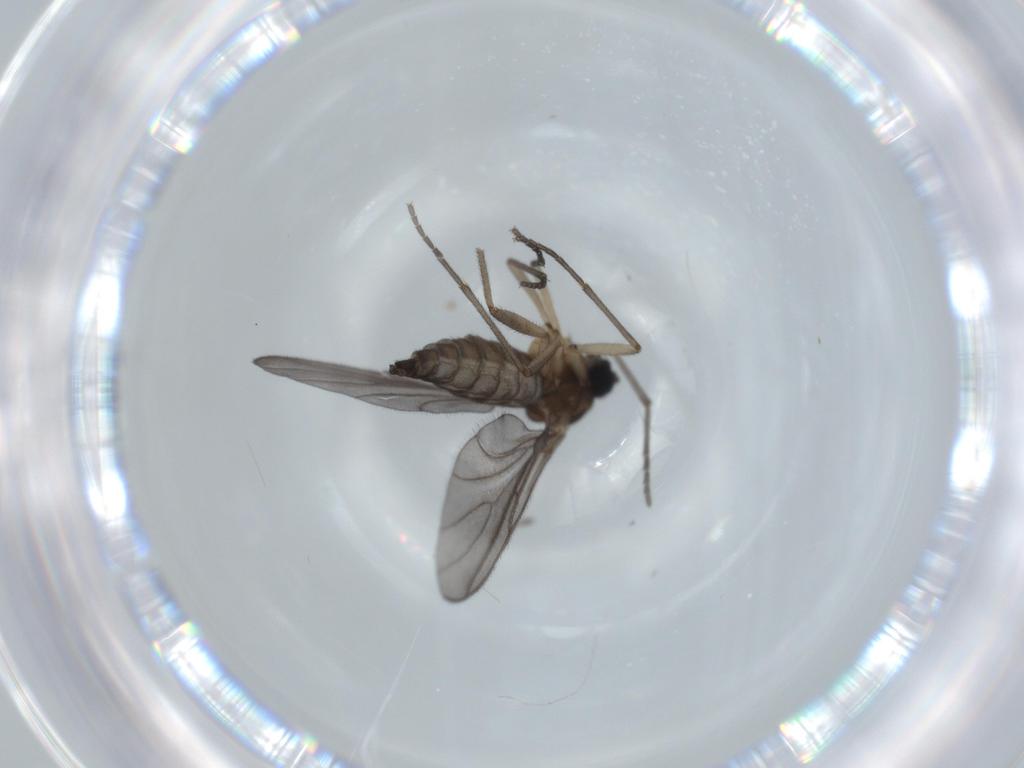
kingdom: Animalia
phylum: Arthropoda
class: Insecta
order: Diptera
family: Sciaridae
